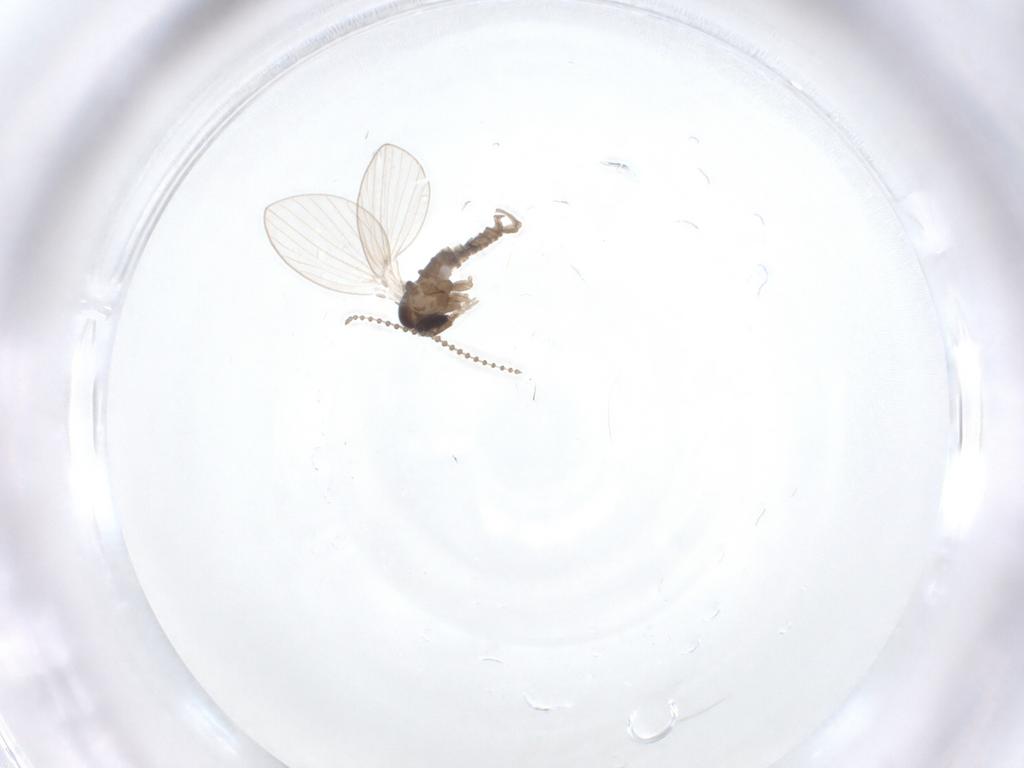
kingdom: Animalia
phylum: Arthropoda
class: Insecta
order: Diptera
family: Psychodidae
